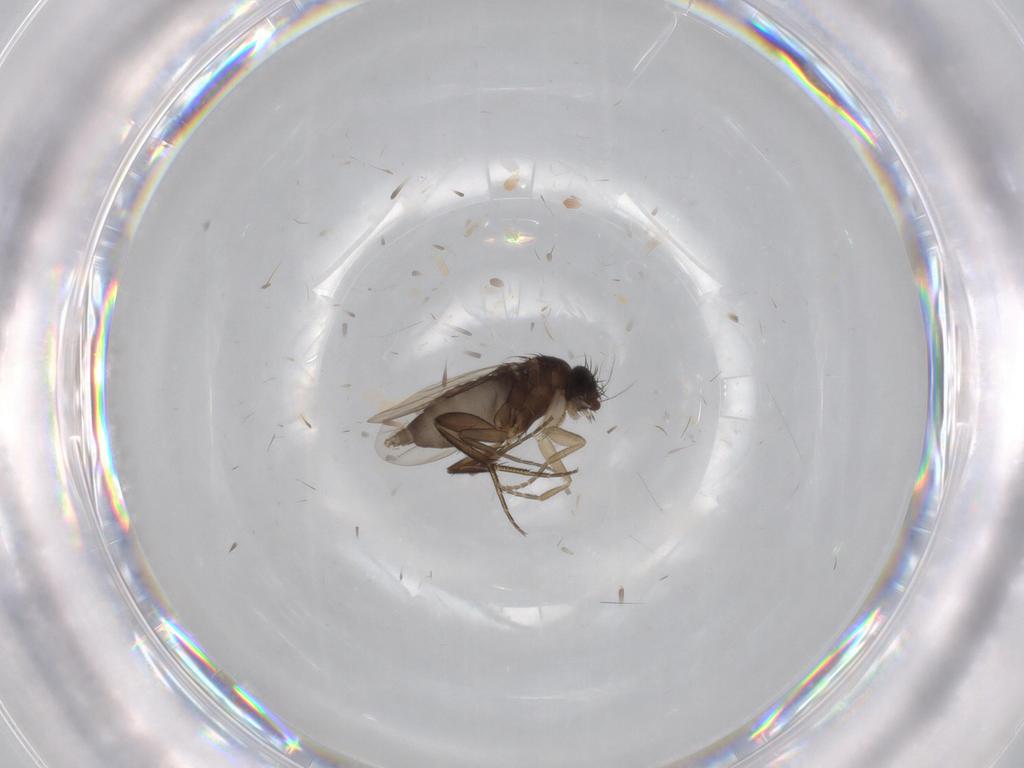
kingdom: Animalia
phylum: Arthropoda
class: Insecta
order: Diptera
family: Phoridae
